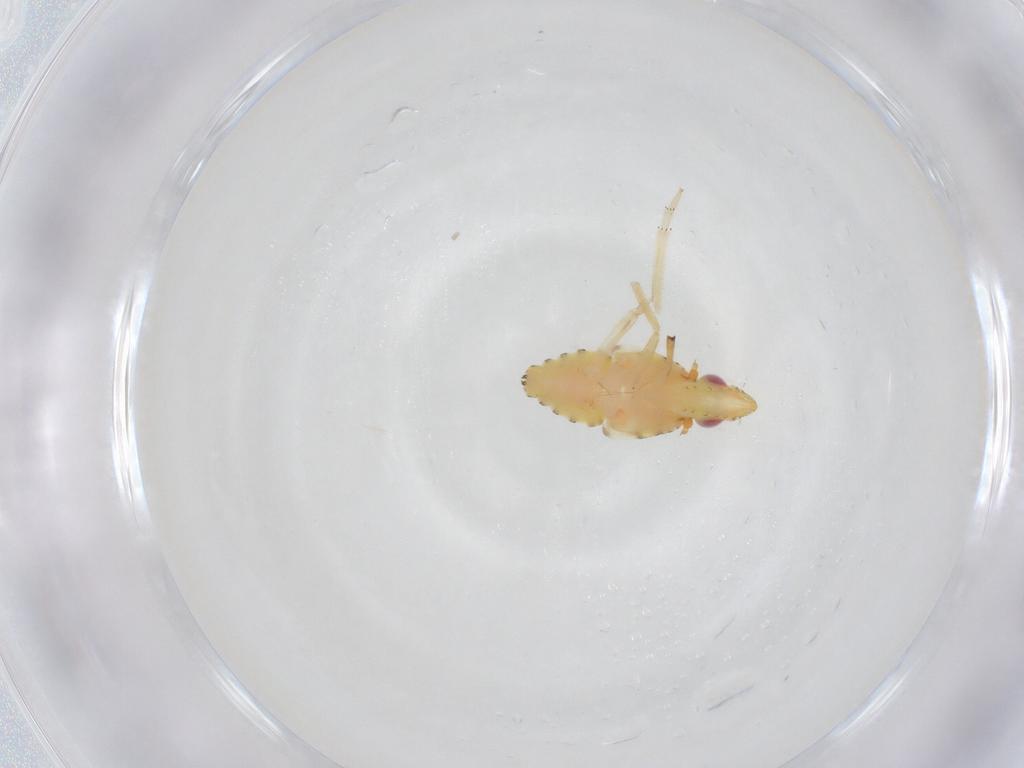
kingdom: Animalia
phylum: Arthropoda
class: Insecta
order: Hemiptera
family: Tropiduchidae
